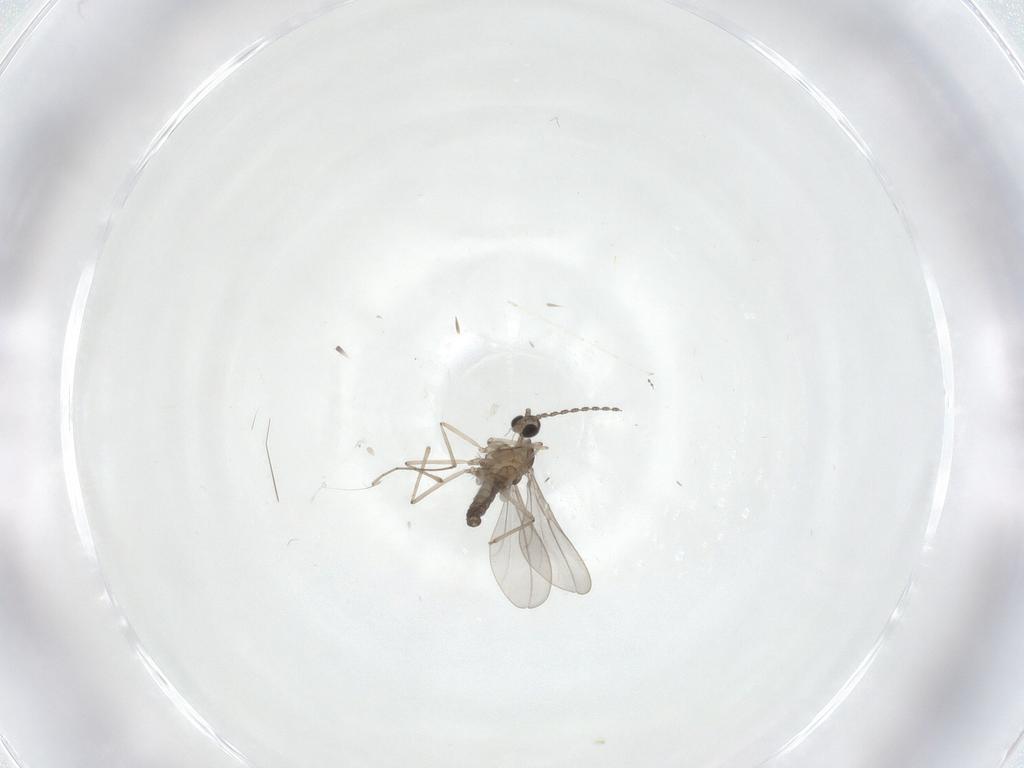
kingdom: Animalia
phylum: Arthropoda
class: Insecta
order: Diptera
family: Cecidomyiidae
